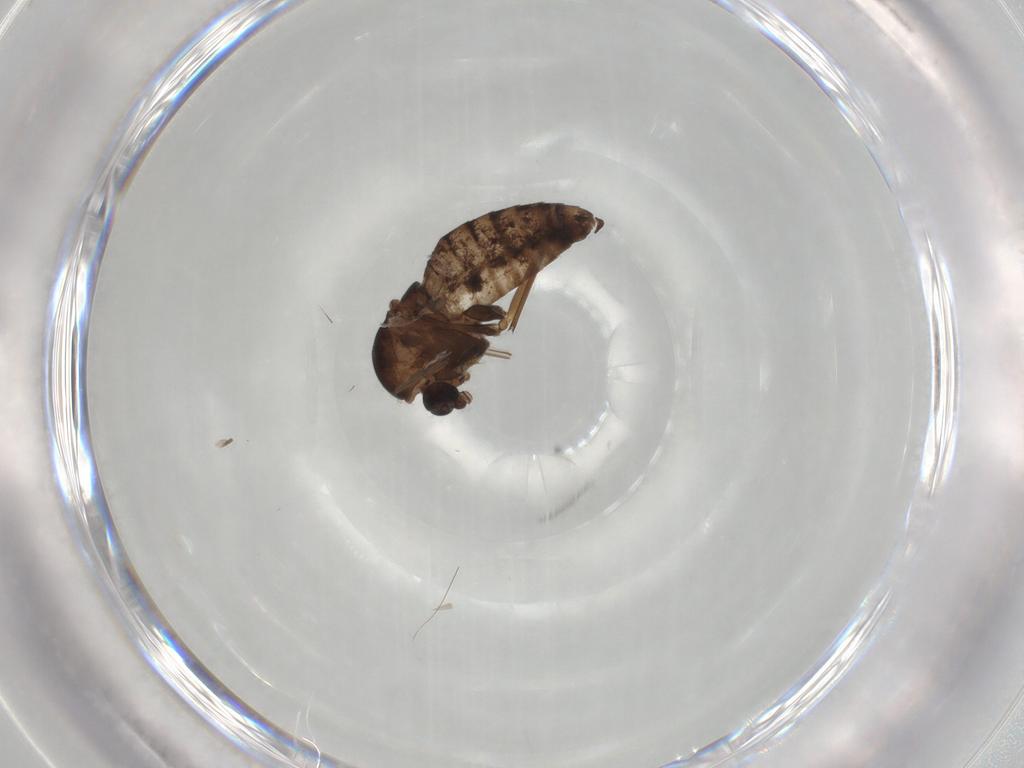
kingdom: Animalia
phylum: Arthropoda
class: Insecta
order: Diptera
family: Chironomidae
